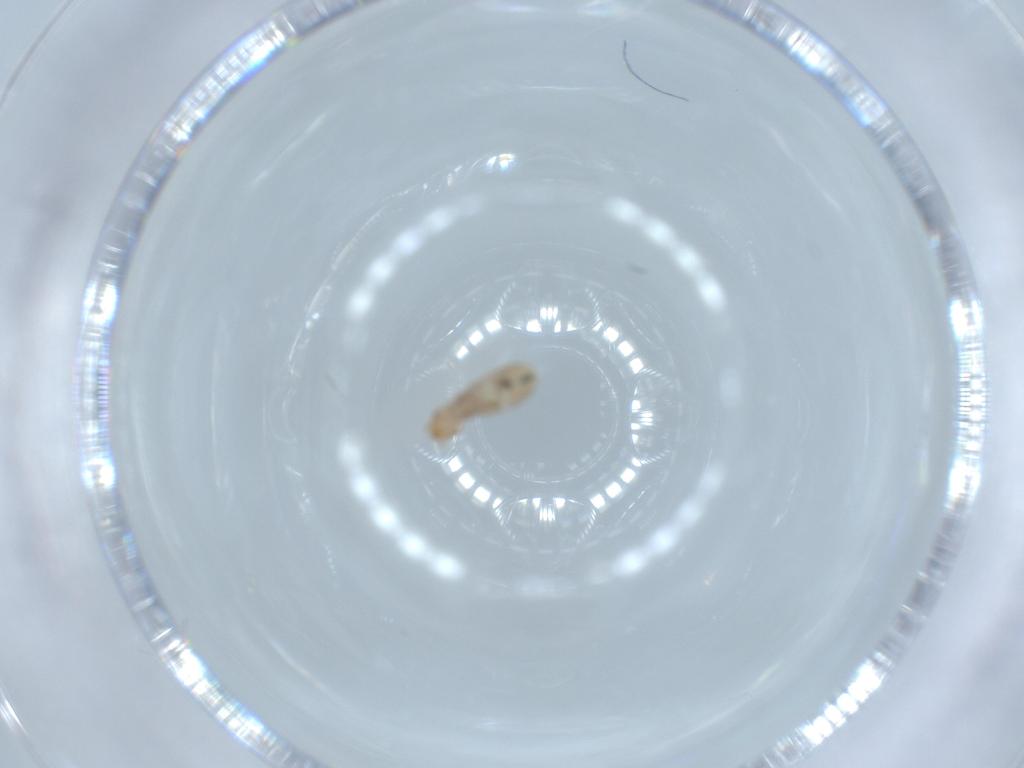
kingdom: Animalia
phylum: Arthropoda
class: Insecta
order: Psocodea
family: Liposcelididae
